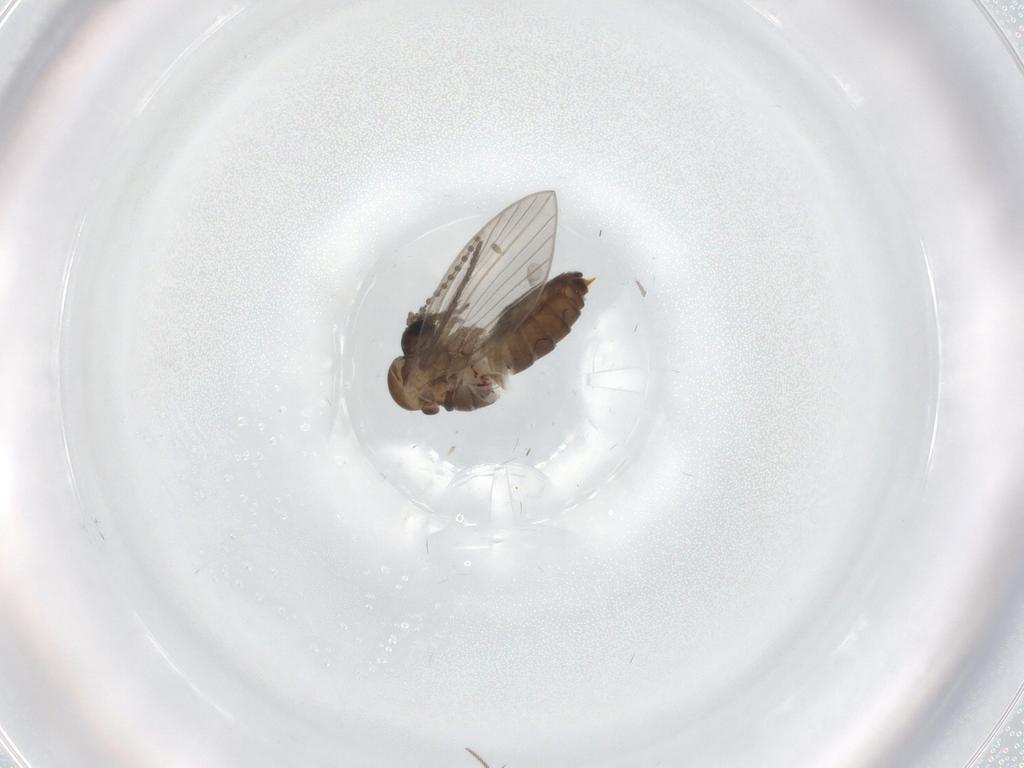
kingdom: Animalia
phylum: Arthropoda
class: Insecta
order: Diptera
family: Psychodidae
